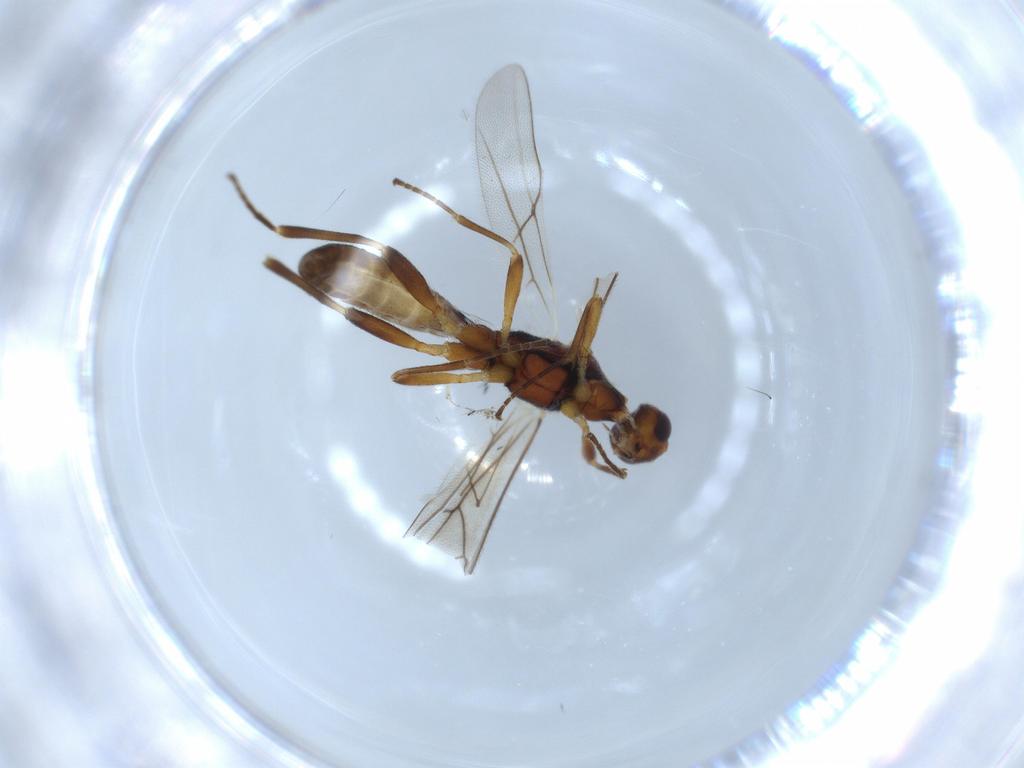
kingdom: Animalia
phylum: Arthropoda
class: Insecta
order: Hymenoptera
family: Braconidae
